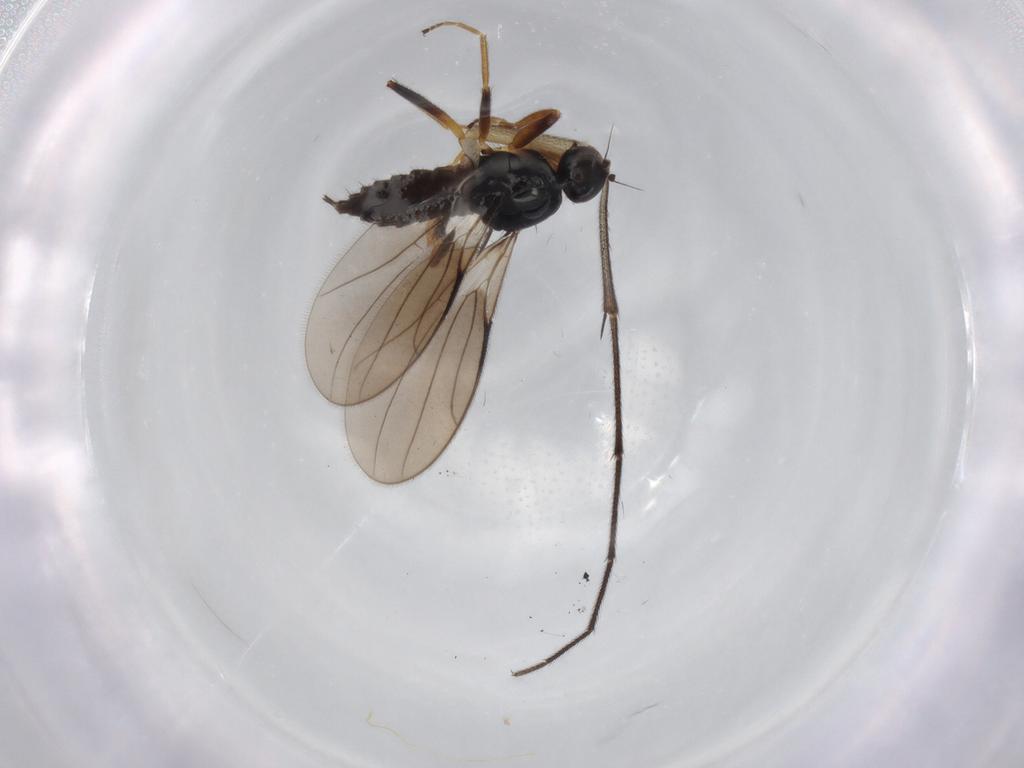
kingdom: Animalia
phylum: Arthropoda
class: Insecta
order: Diptera
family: Hybotidae
